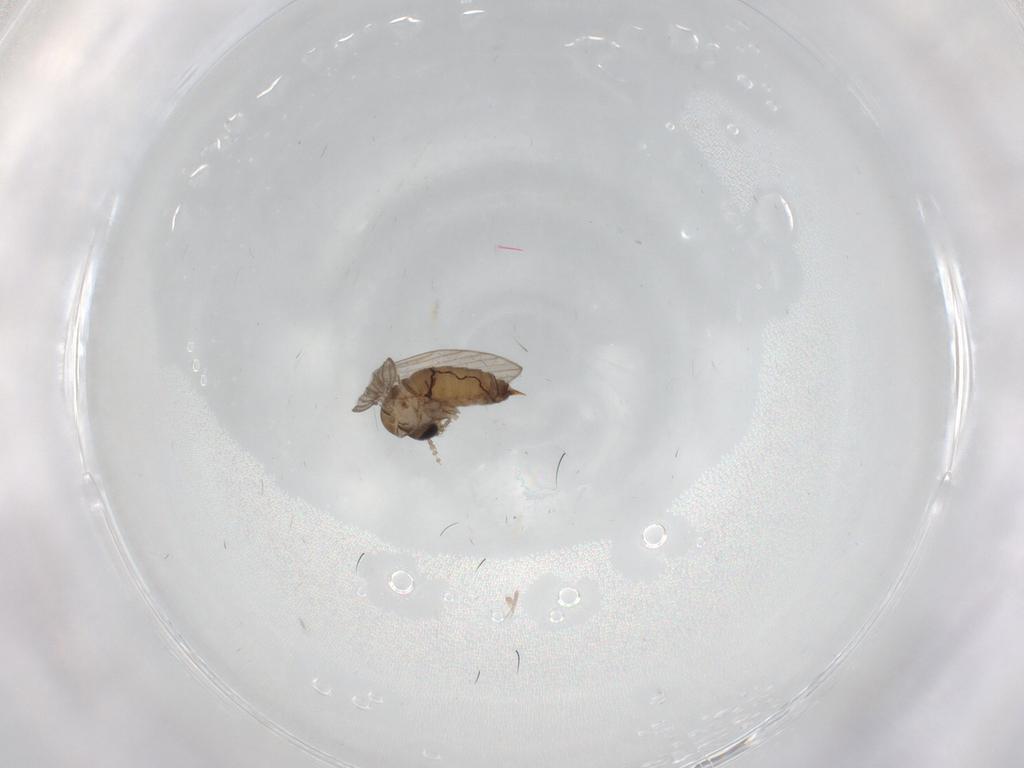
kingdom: Animalia
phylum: Arthropoda
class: Insecta
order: Diptera
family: Psychodidae
